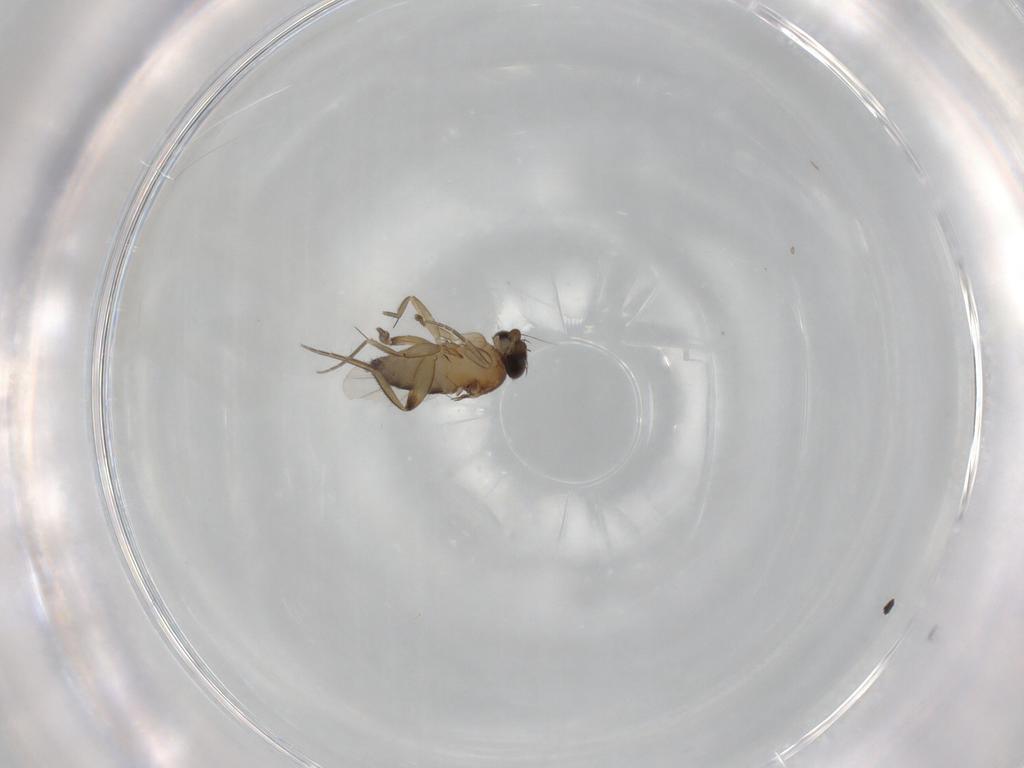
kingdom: Animalia
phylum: Arthropoda
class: Insecta
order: Diptera
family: Phoridae
